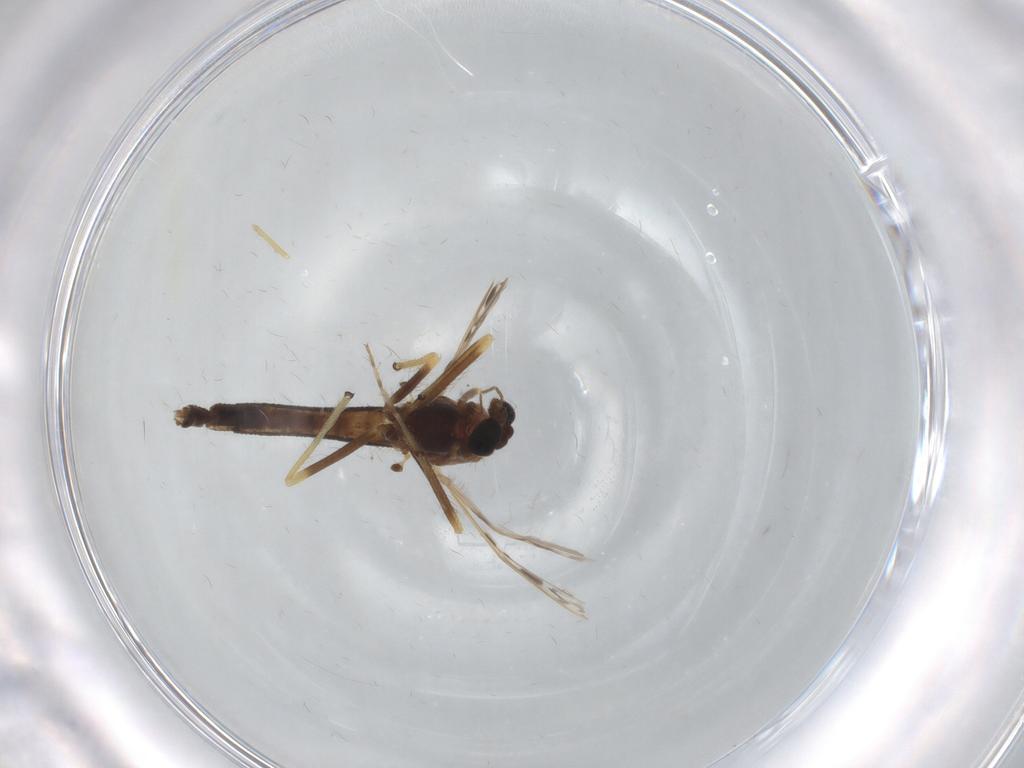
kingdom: Animalia
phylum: Arthropoda
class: Insecta
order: Diptera
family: Chironomidae
